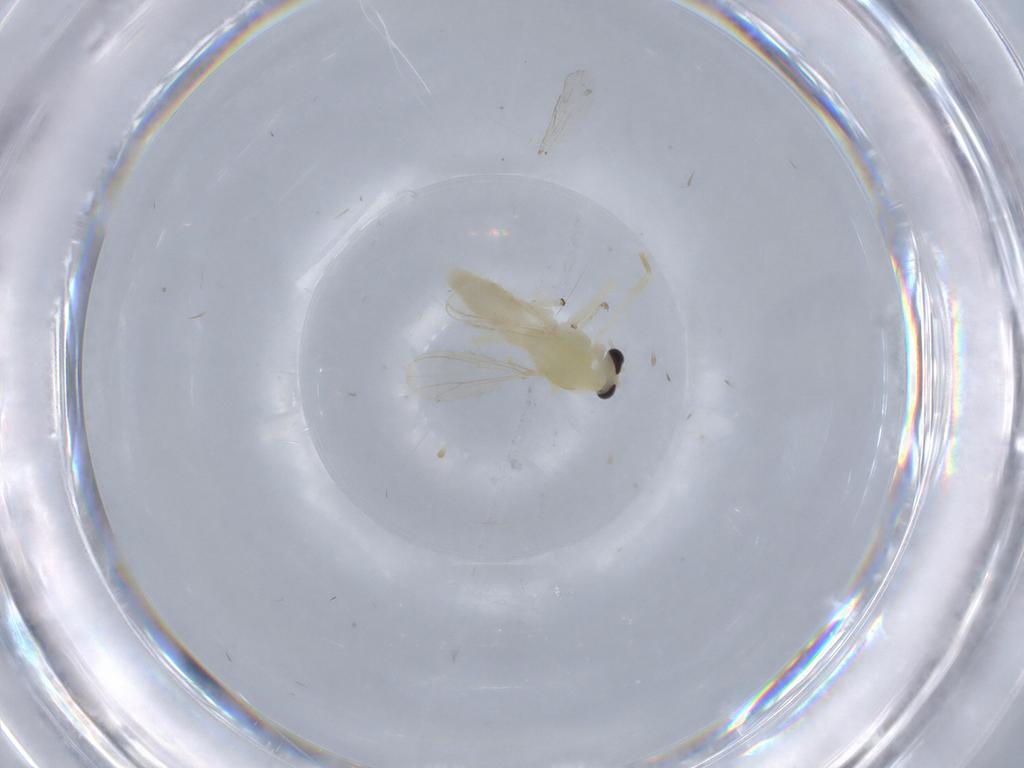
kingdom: Animalia
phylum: Arthropoda
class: Insecta
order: Diptera
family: Chironomidae
